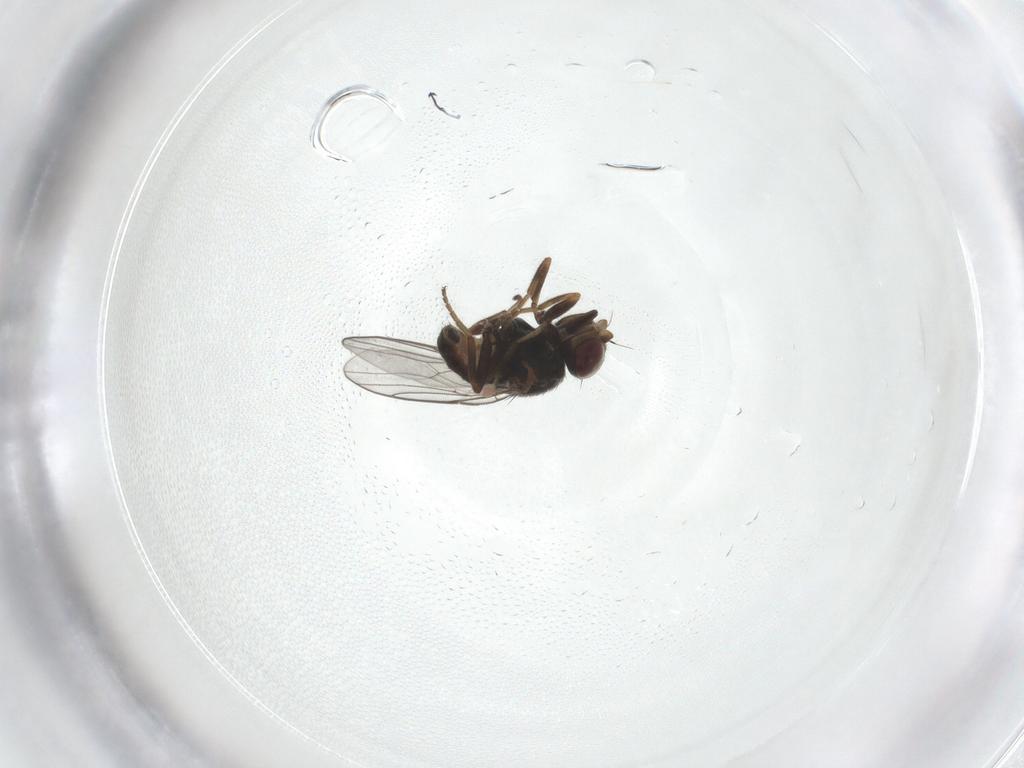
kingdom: Animalia
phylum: Arthropoda
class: Insecta
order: Diptera
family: Chloropidae
